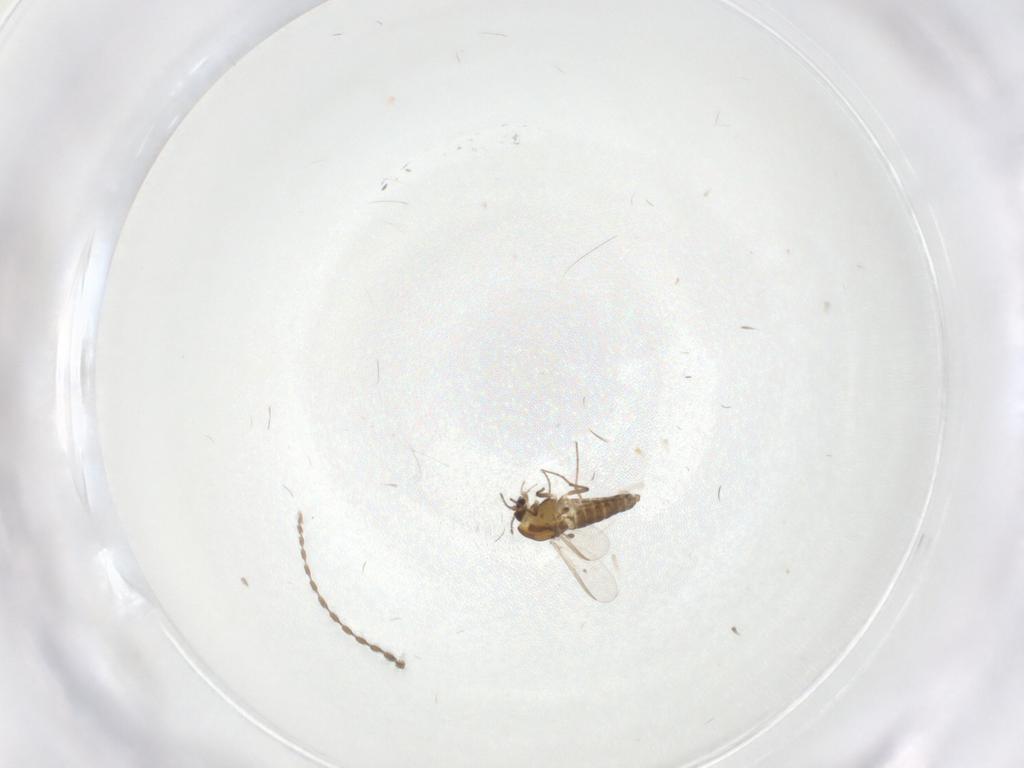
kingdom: Animalia
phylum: Arthropoda
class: Insecta
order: Diptera
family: Chironomidae
